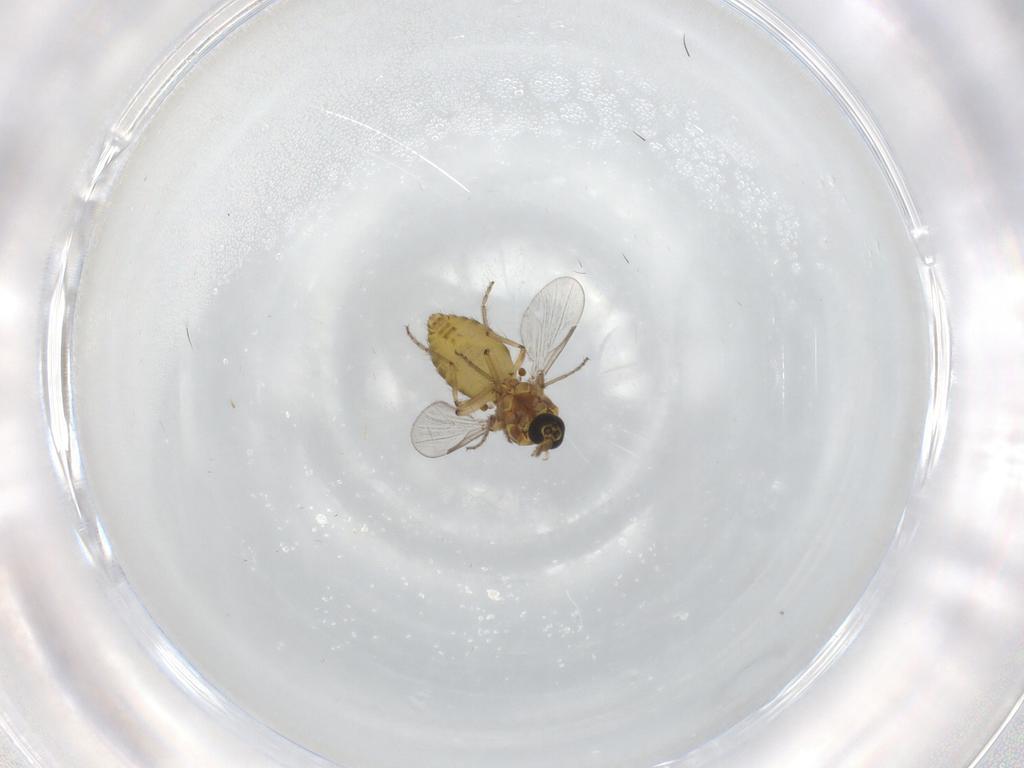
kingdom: Animalia
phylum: Arthropoda
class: Insecta
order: Diptera
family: Ceratopogonidae
